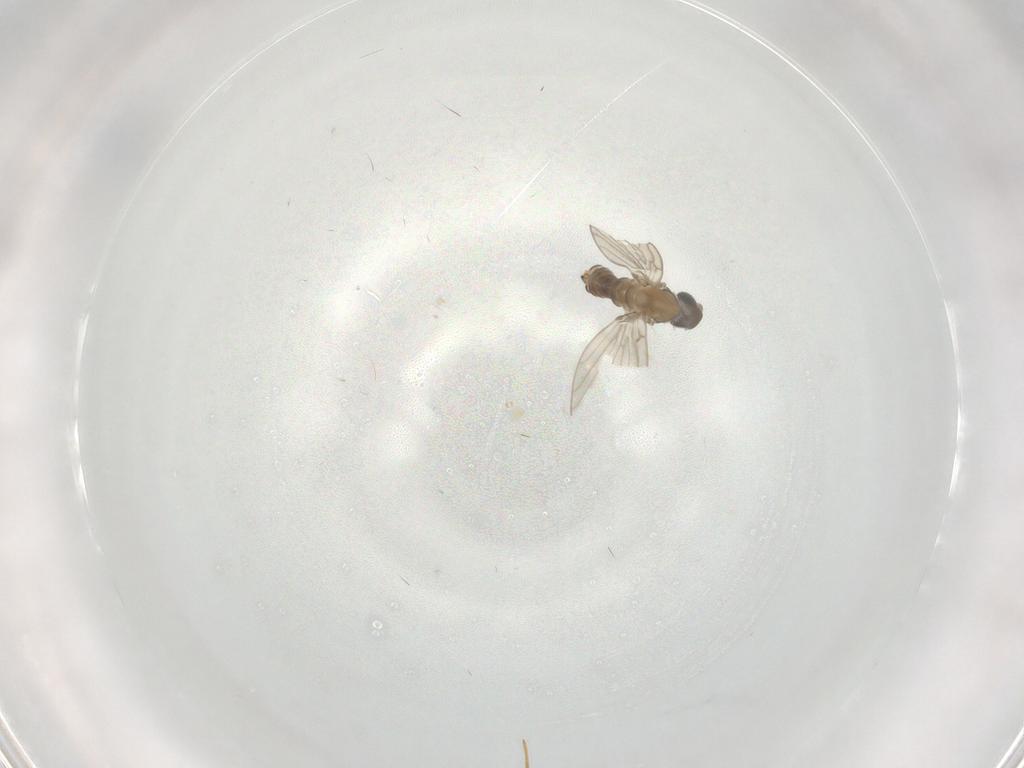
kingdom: Animalia
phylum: Arthropoda
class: Insecta
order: Diptera
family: Psychodidae
